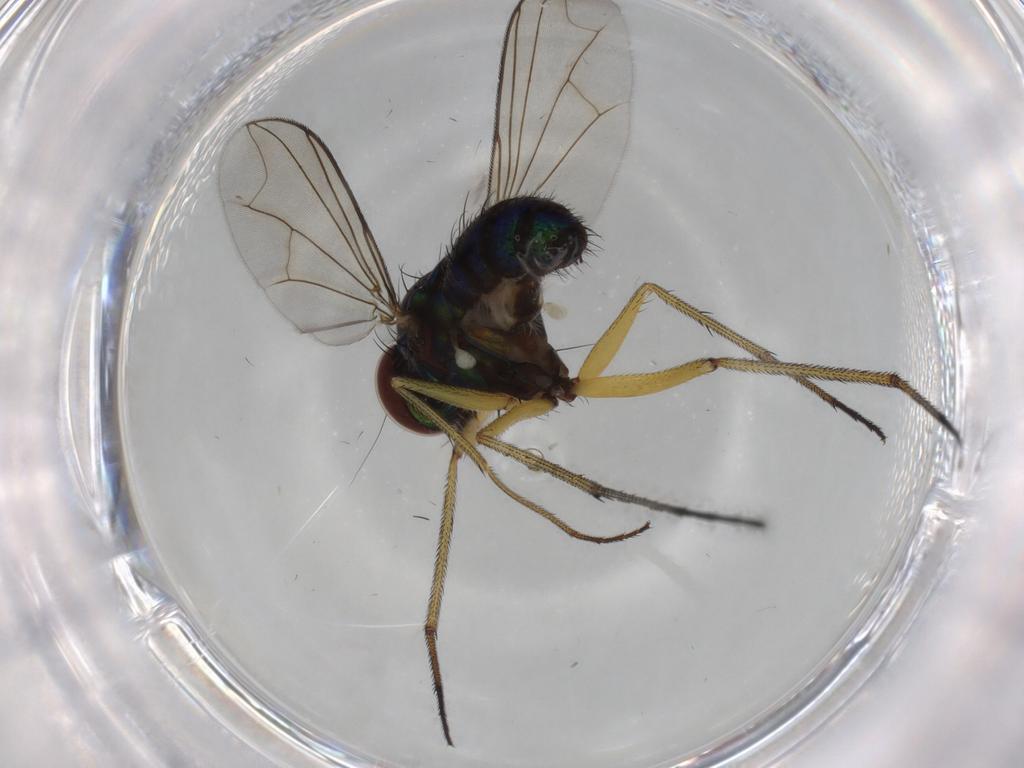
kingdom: Animalia
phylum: Arthropoda
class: Insecta
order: Diptera
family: Dolichopodidae
